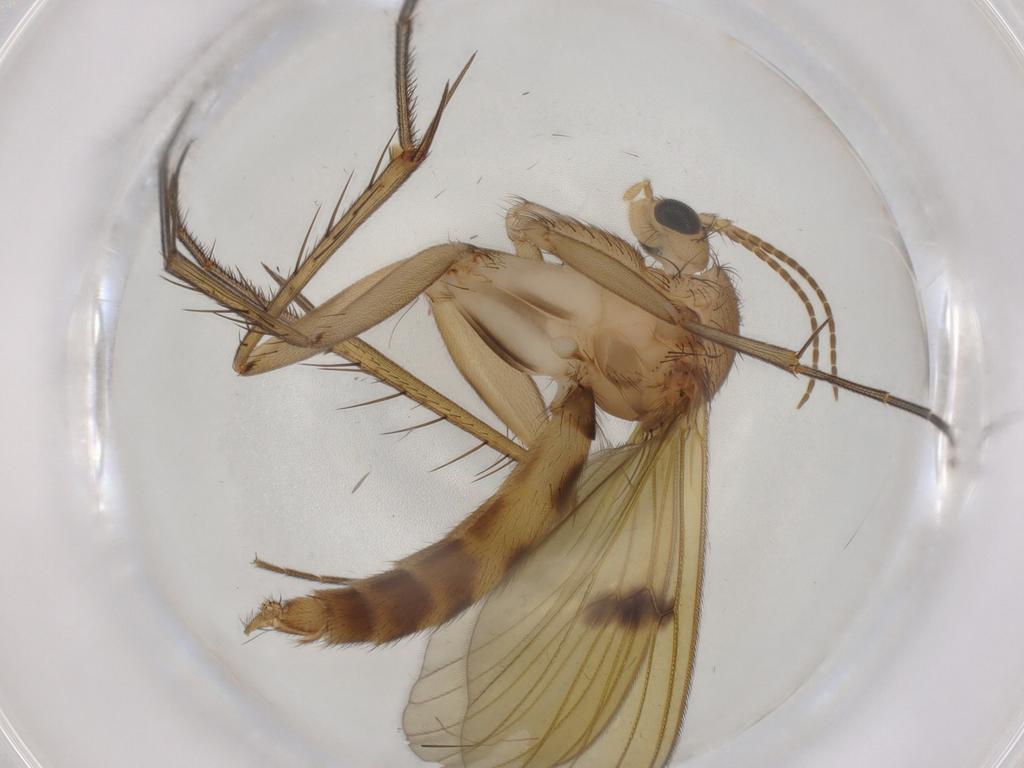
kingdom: Animalia
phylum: Arthropoda
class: Insecta
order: Diptera
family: Mycetophilidae
